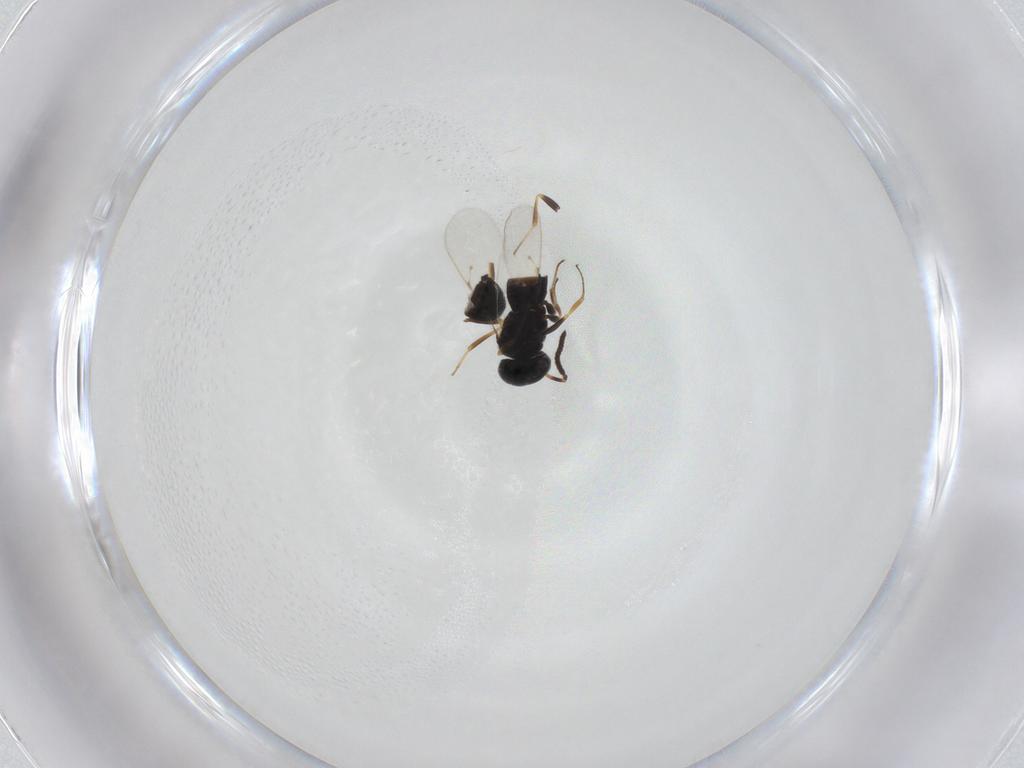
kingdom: Animalia
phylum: Arthropoda
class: Insecta
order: Hymenoptera
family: Scelionidae
